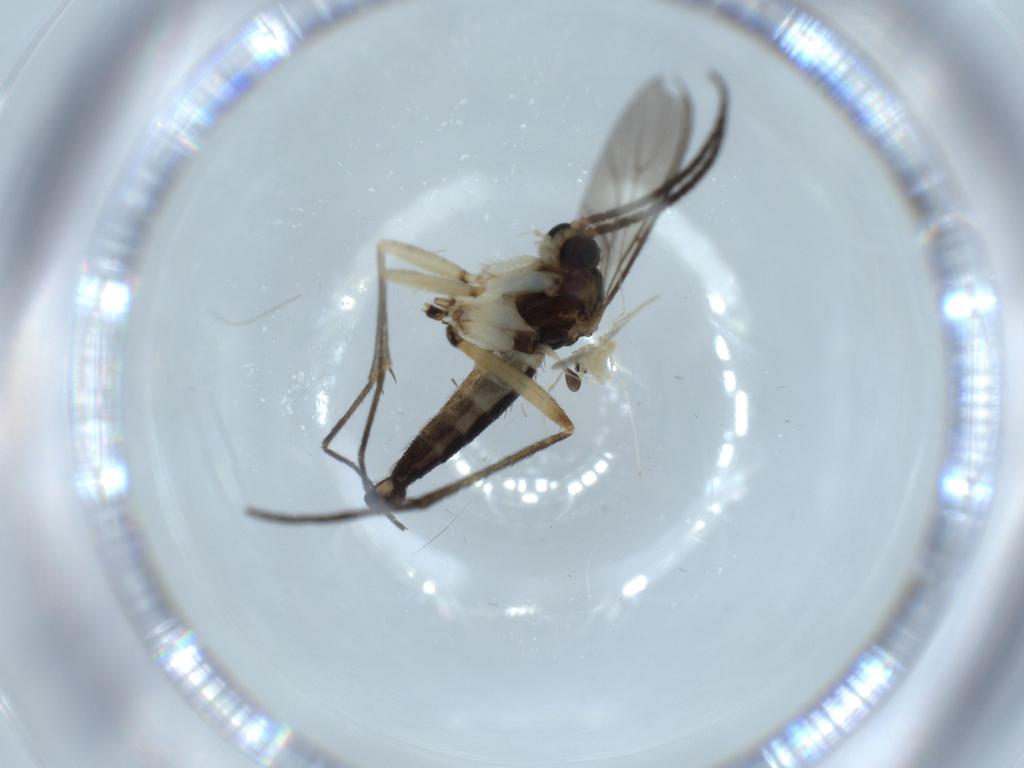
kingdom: Animalia
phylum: Arthropoda
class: Insecta
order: Diptera
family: Sciaridae
